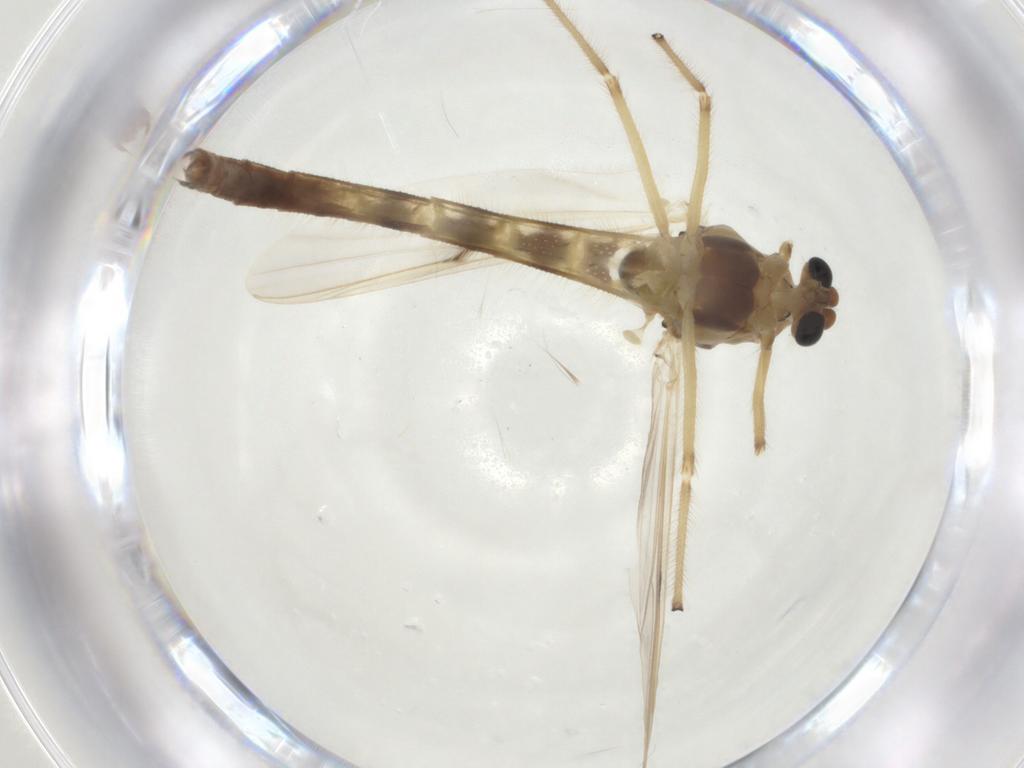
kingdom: Animalia
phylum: Arthropoda
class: Insecta
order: Diptera
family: Chironomidae
